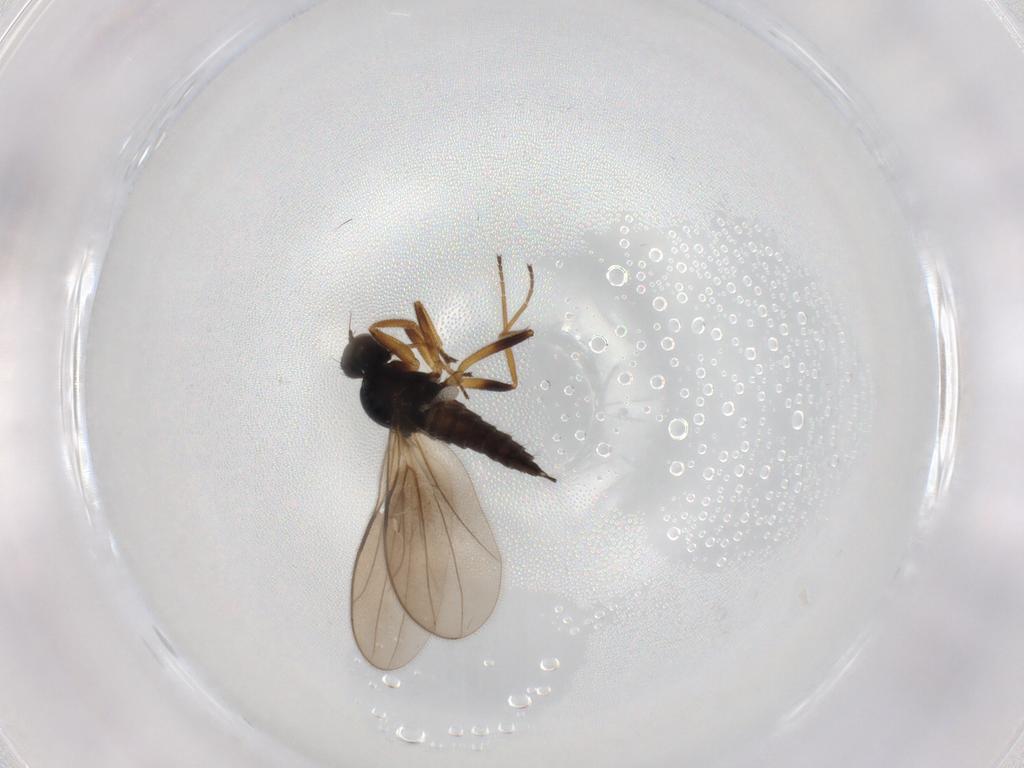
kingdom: Animalia
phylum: Arthropoda
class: Insecta
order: Diptera
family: Hybotidae
